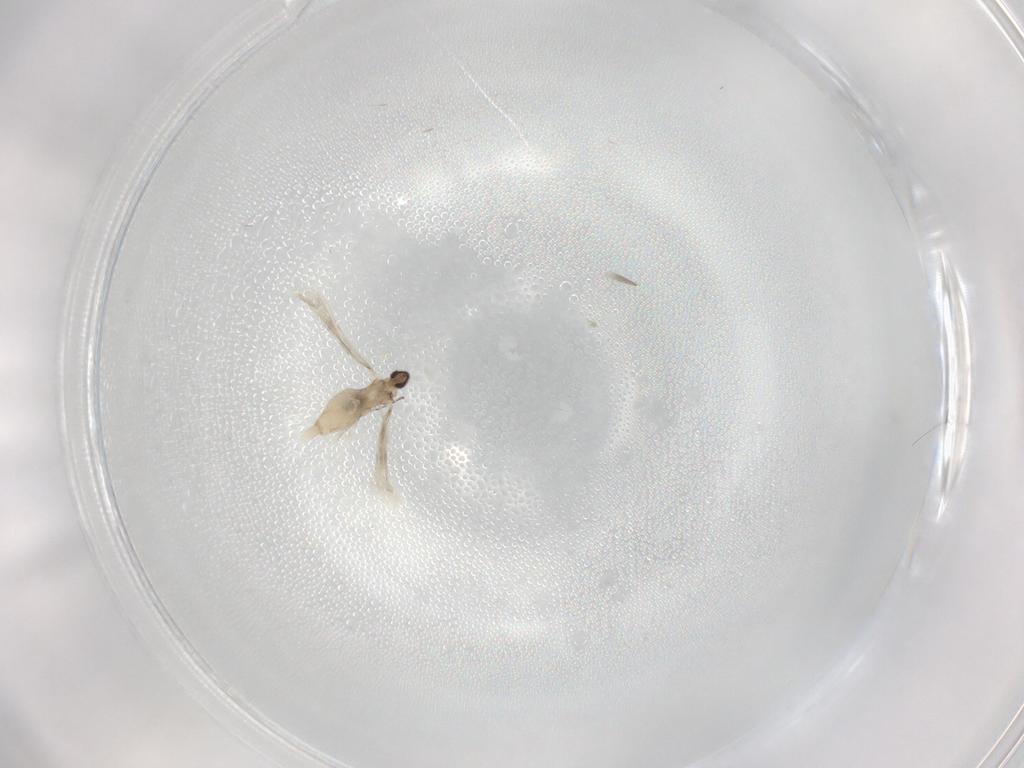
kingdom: Animalia
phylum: Arthropoda
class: Insecta
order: Diptera
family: Cecidomyiidae
